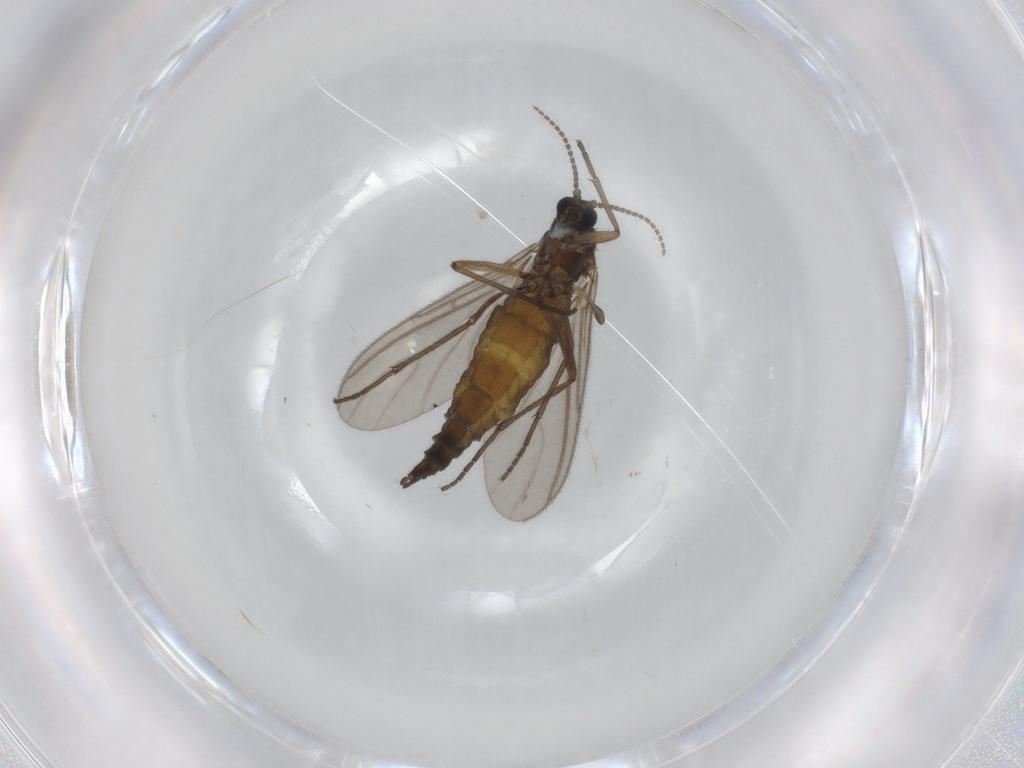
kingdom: Animalia
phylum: Arthropoda
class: Insecta
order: Diptera
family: Sciaridae
